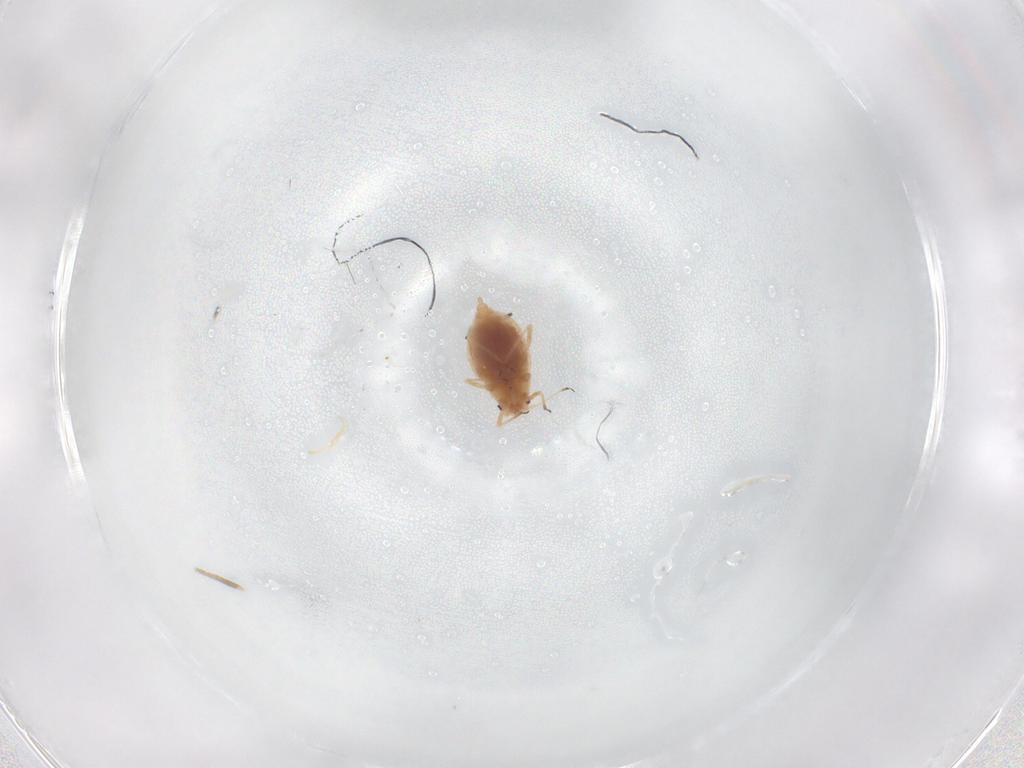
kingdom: Animalia
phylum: Arthropoda
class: Insecta
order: Hemiptera
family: Aphididae
